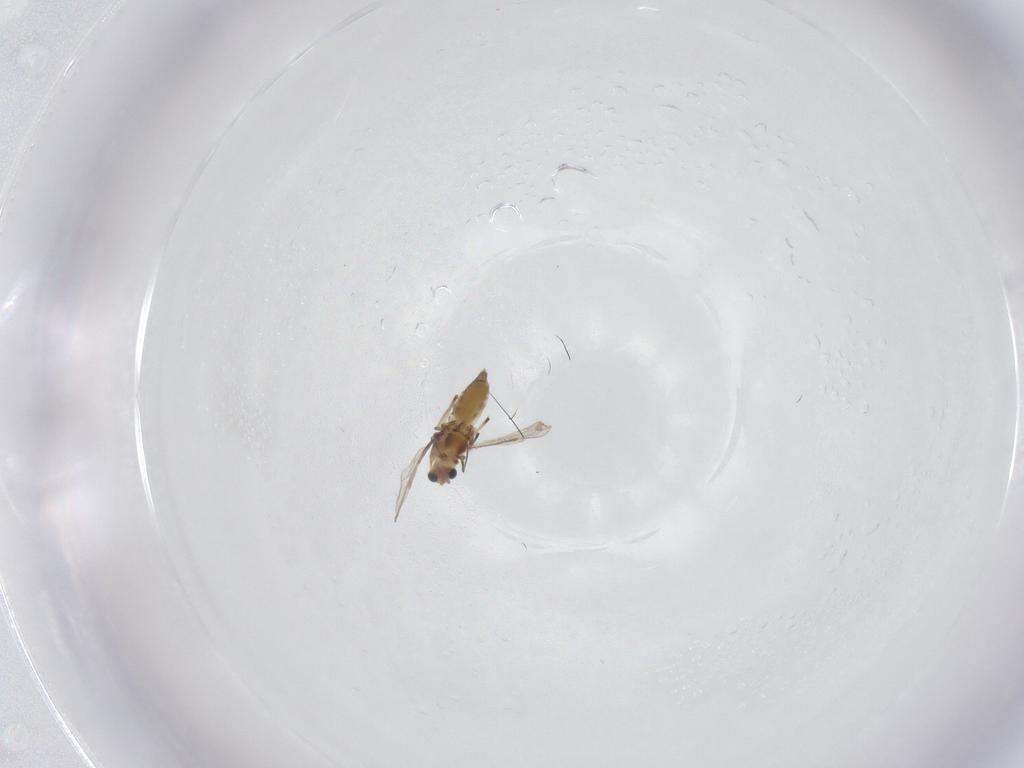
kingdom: Animalia
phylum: Arthropoda
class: Insecta
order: Diptera
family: Chironomidae
